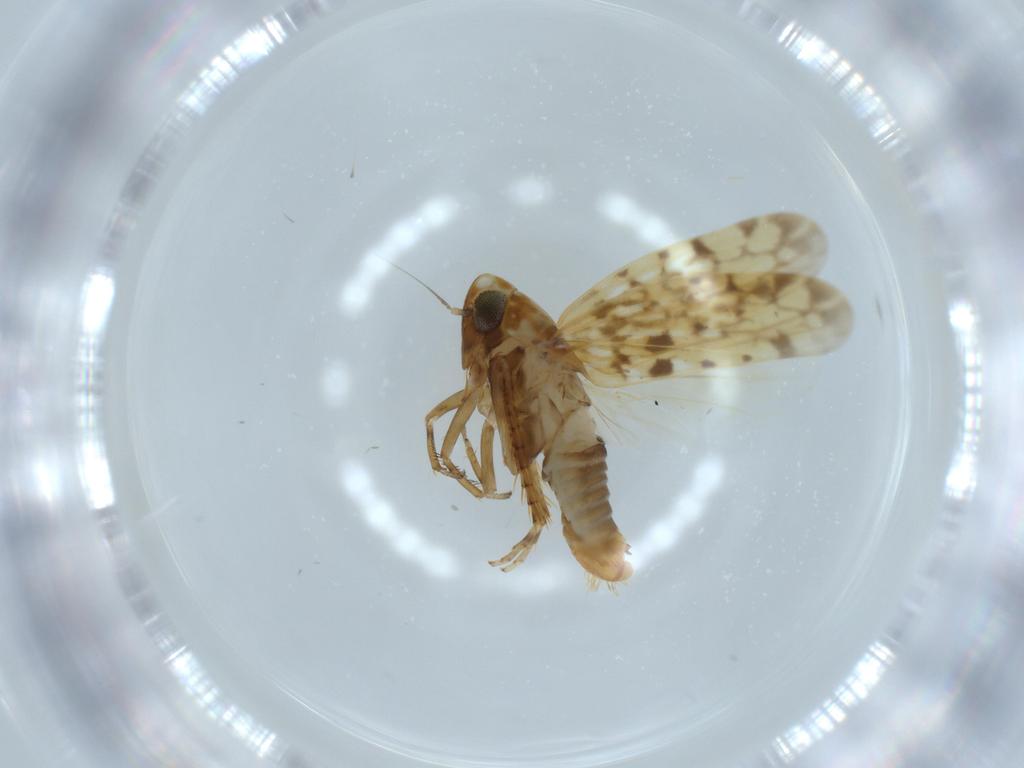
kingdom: Animalia
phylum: Arthropoda
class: Insecta
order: Hemiptera
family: Cicadellidae
